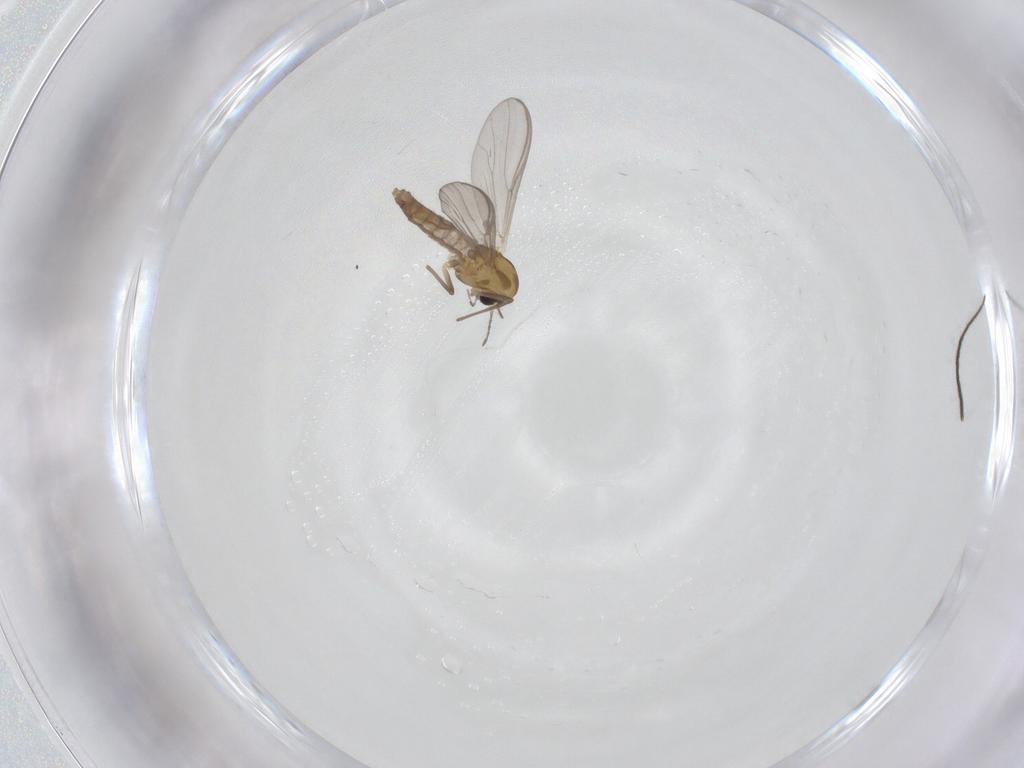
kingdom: Animalia
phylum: Arthropoda
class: Insecta
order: Diptera
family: Chironomidae
